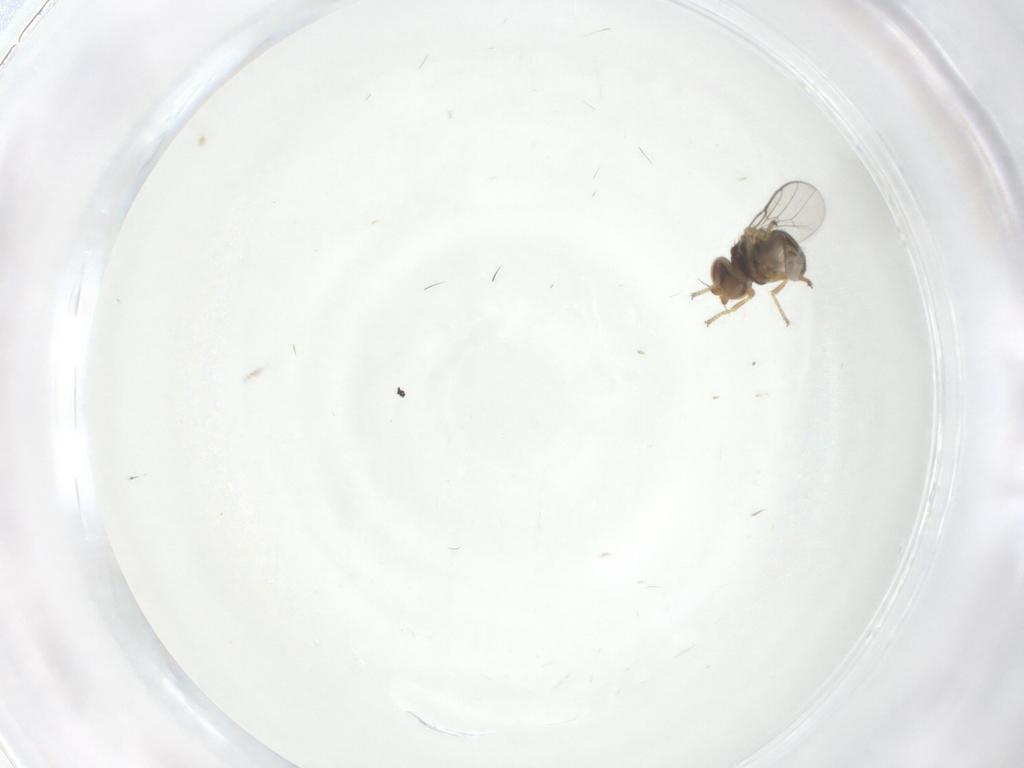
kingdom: Animalia
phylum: Arthropoda
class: Insecta
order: Diptera
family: Chloropidae
